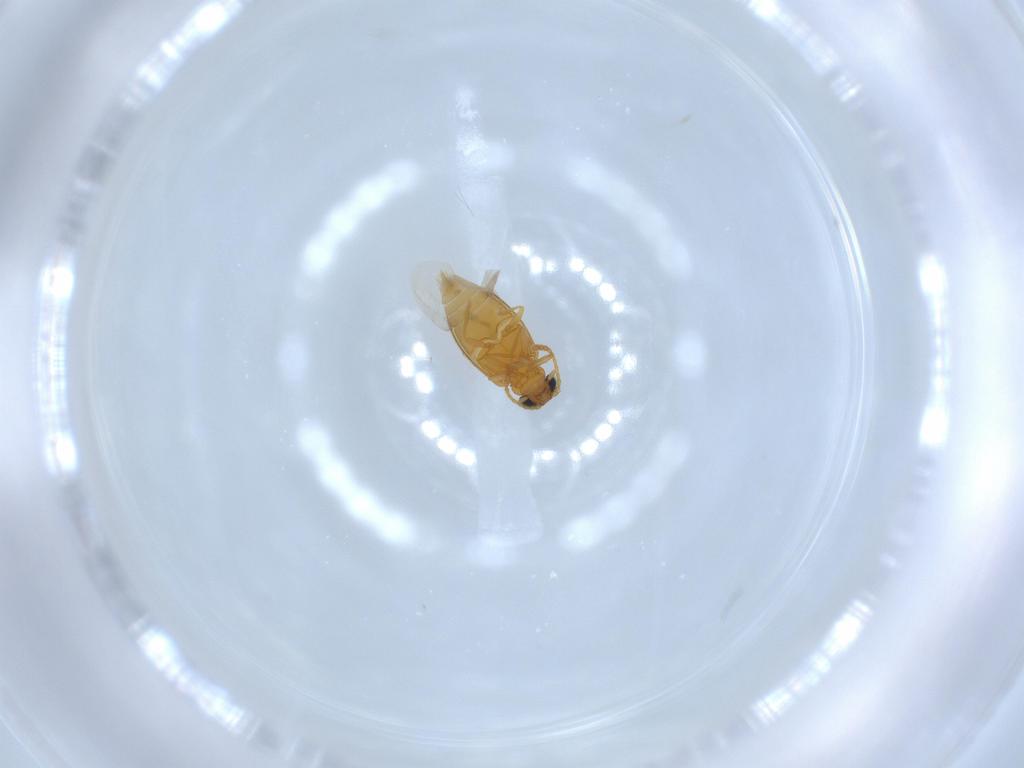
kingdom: Animalia
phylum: Arthropoda
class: Insecta
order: Coleoptera
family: Aderidae
